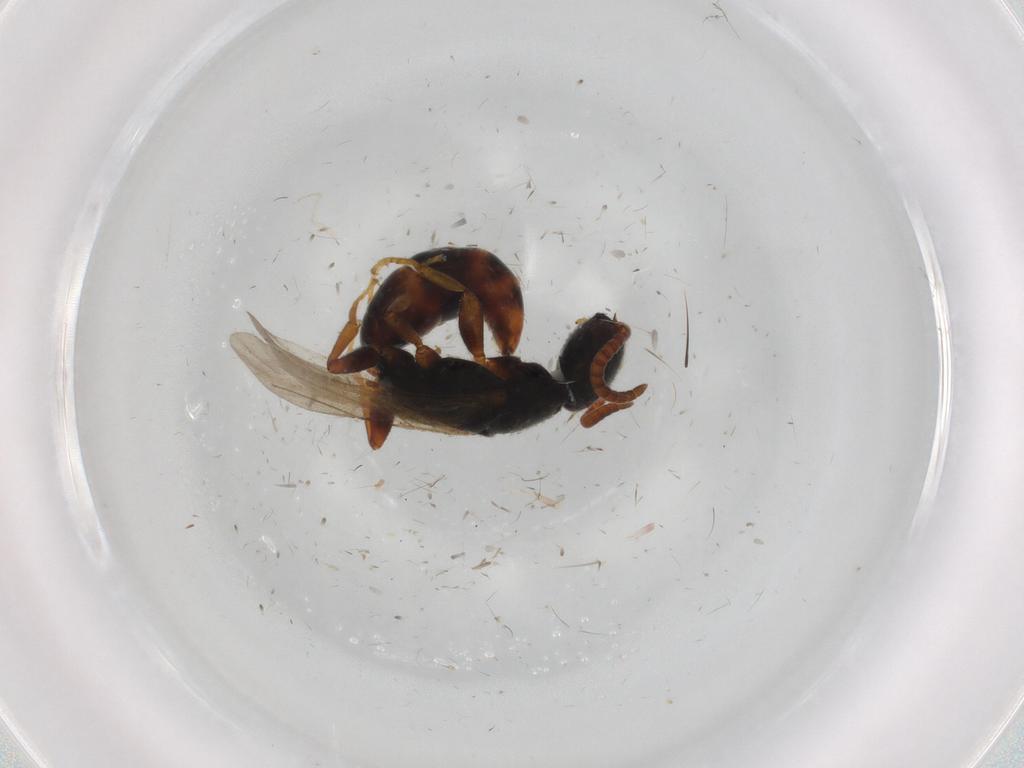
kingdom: Animalia
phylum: Arthropoda
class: Insecta
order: Hymenoptera
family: Bethylidae
